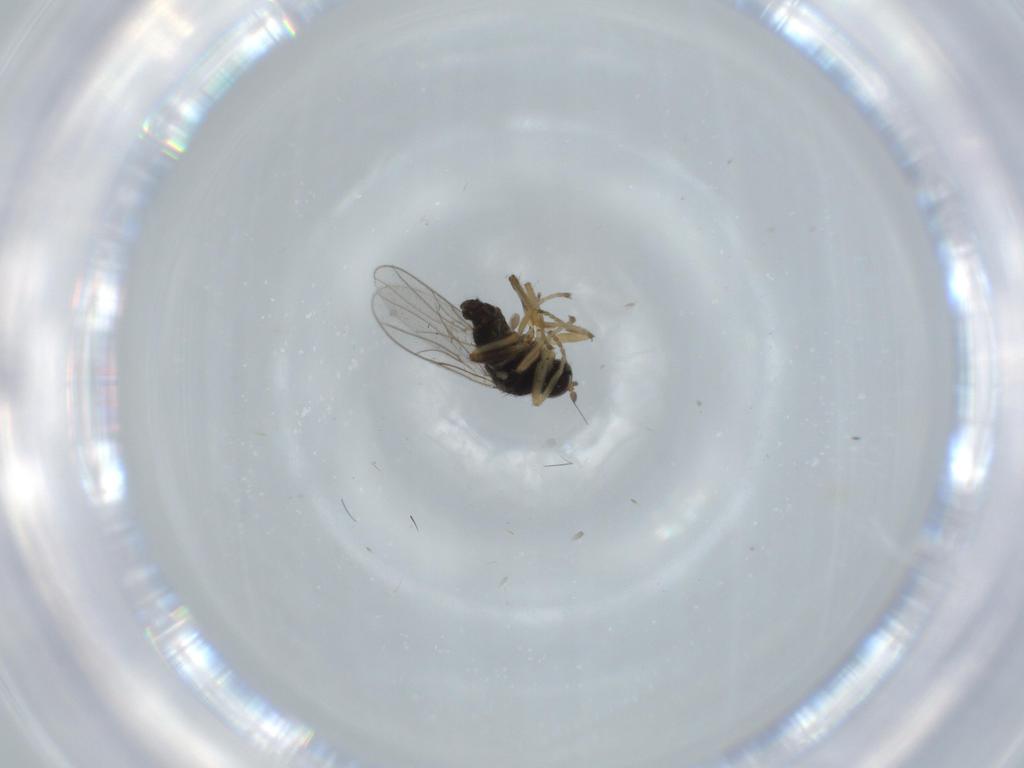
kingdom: Animalia
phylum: Arthropoda
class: Insecta
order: Diptera
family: Hybotidae
